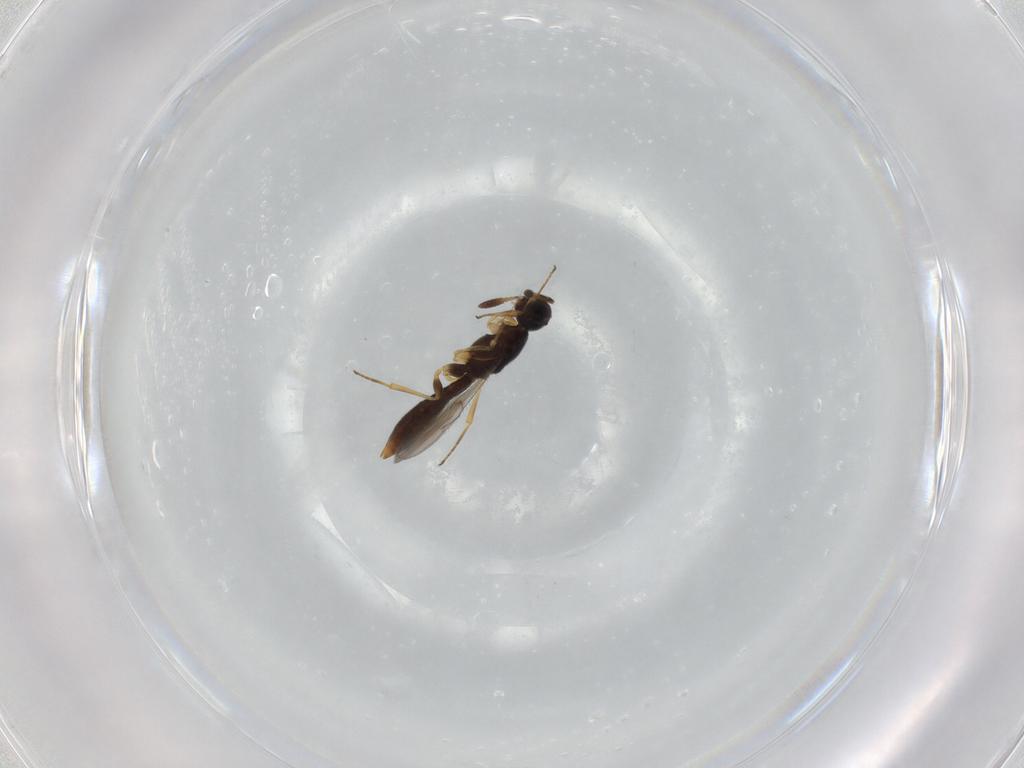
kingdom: Animalia
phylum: Arthropoda
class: Insecta
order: Hymenoptera
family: Scelionidae
